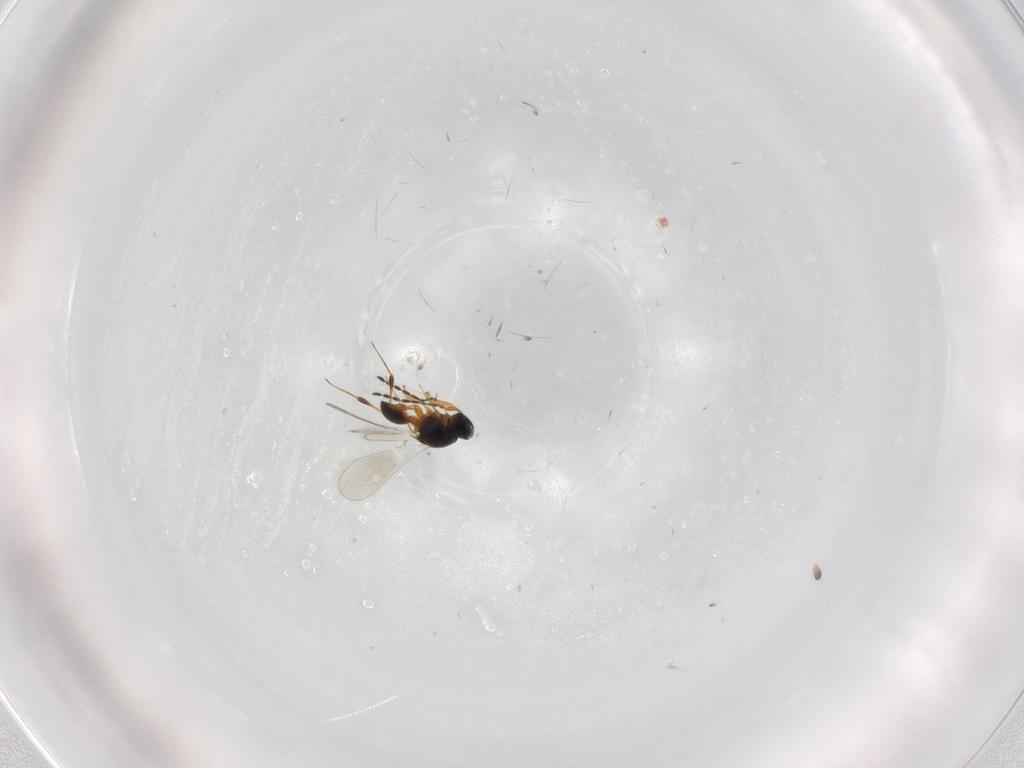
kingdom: Animalia
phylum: Arthropoda
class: Insecta
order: Hymenoptera
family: Platygastridae
